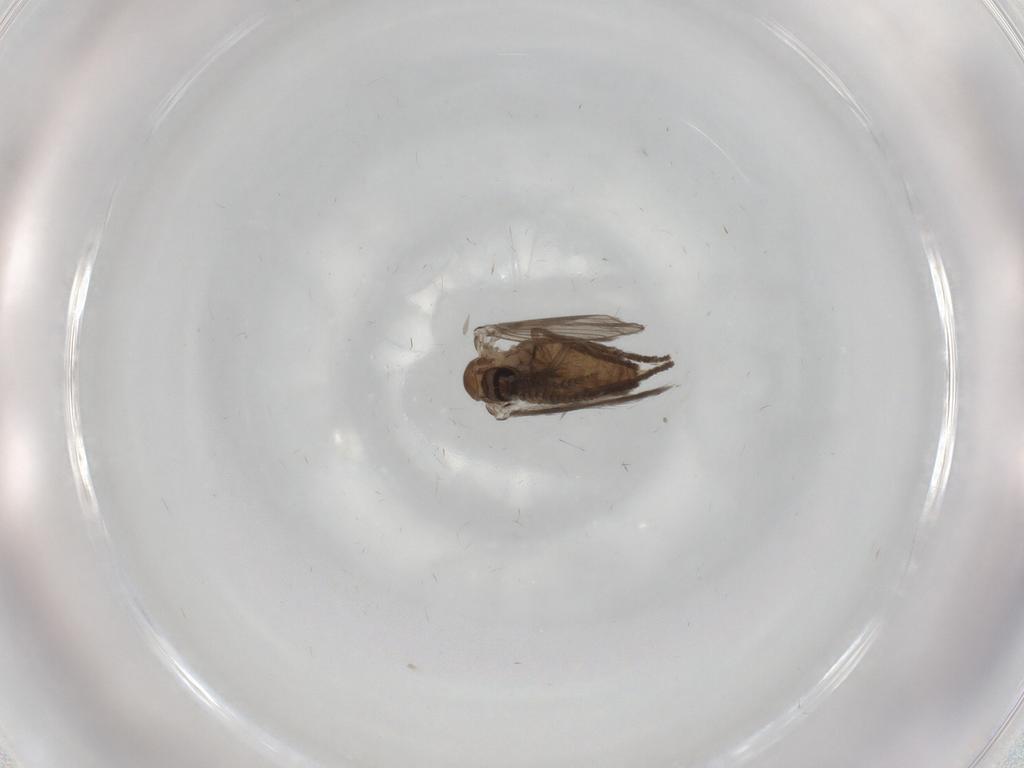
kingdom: Animalia
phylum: Arthropoda
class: Insecta
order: Diptera
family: Cecidomyiidae
